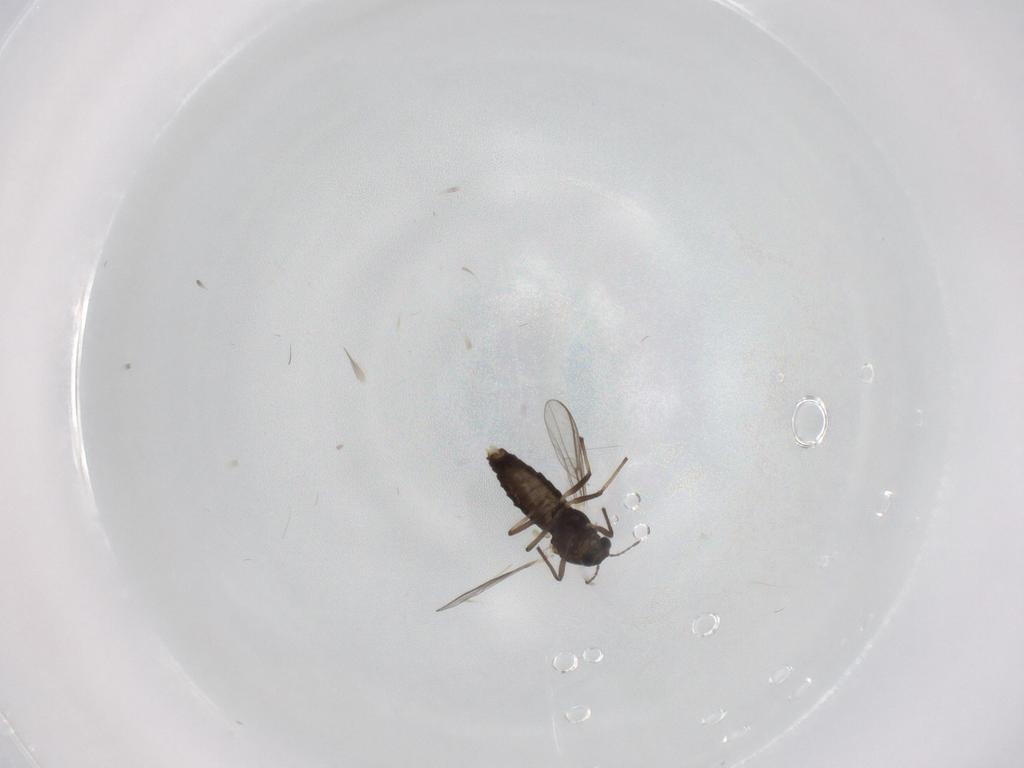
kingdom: Animalia
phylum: Arthropoda
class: Insecta
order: Diptera
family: Chironomidae
